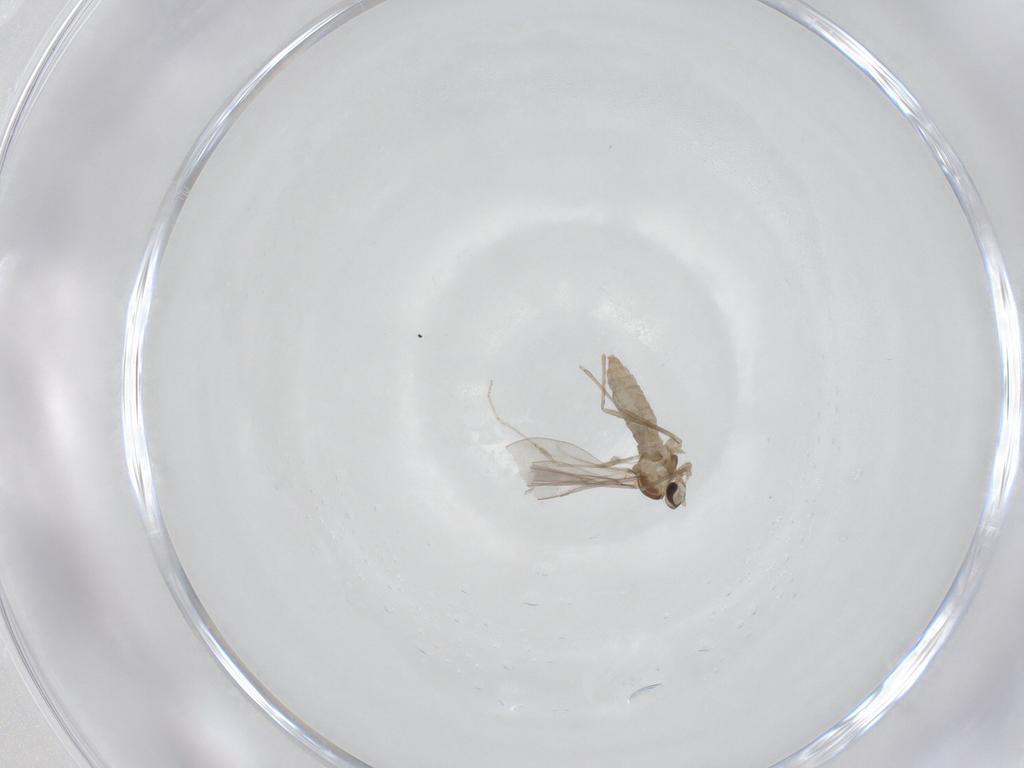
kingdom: Animalia
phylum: Arthropoda
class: Insecta
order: Diptera
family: Cecidomyiidae
